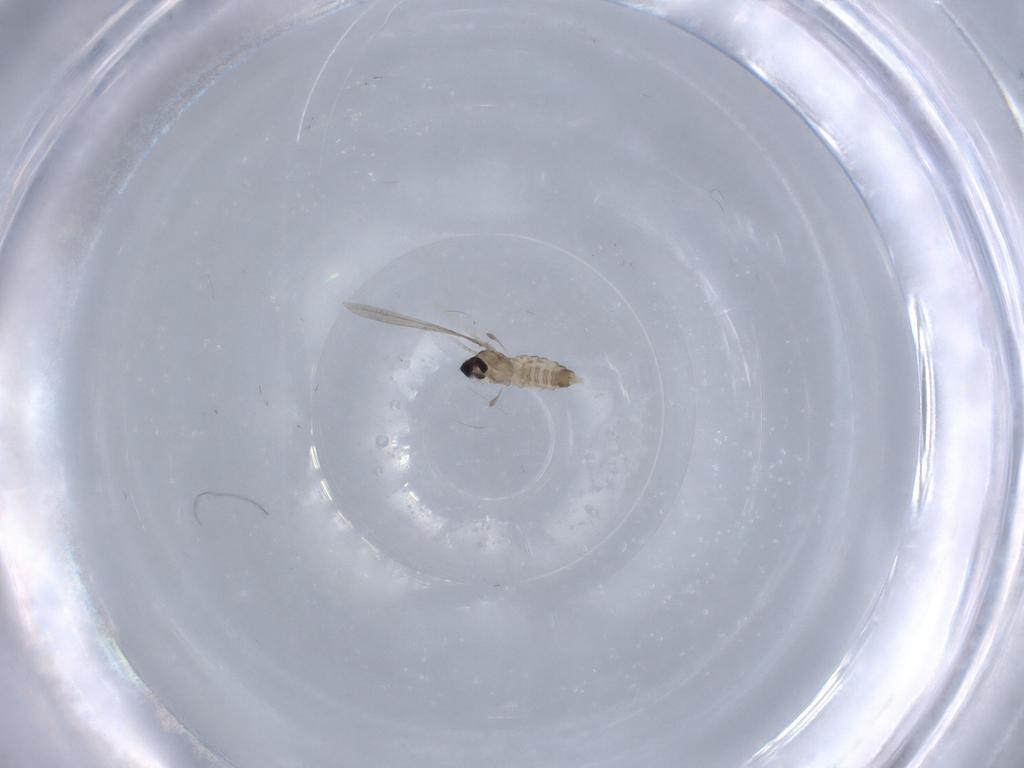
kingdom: Animalia
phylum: Arthropoda
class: Insecta
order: Diptera
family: Cecidomyiidae
